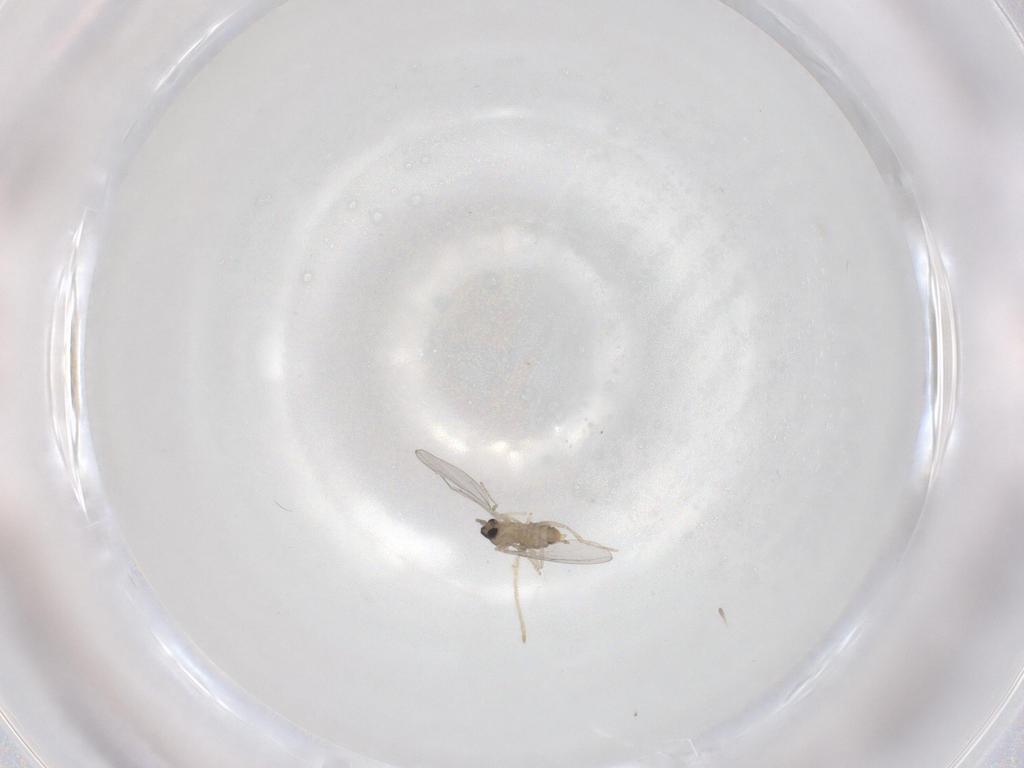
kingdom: Animalia
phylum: Arthropoda
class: Insecta
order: Diptera
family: Cecidomyiidae
